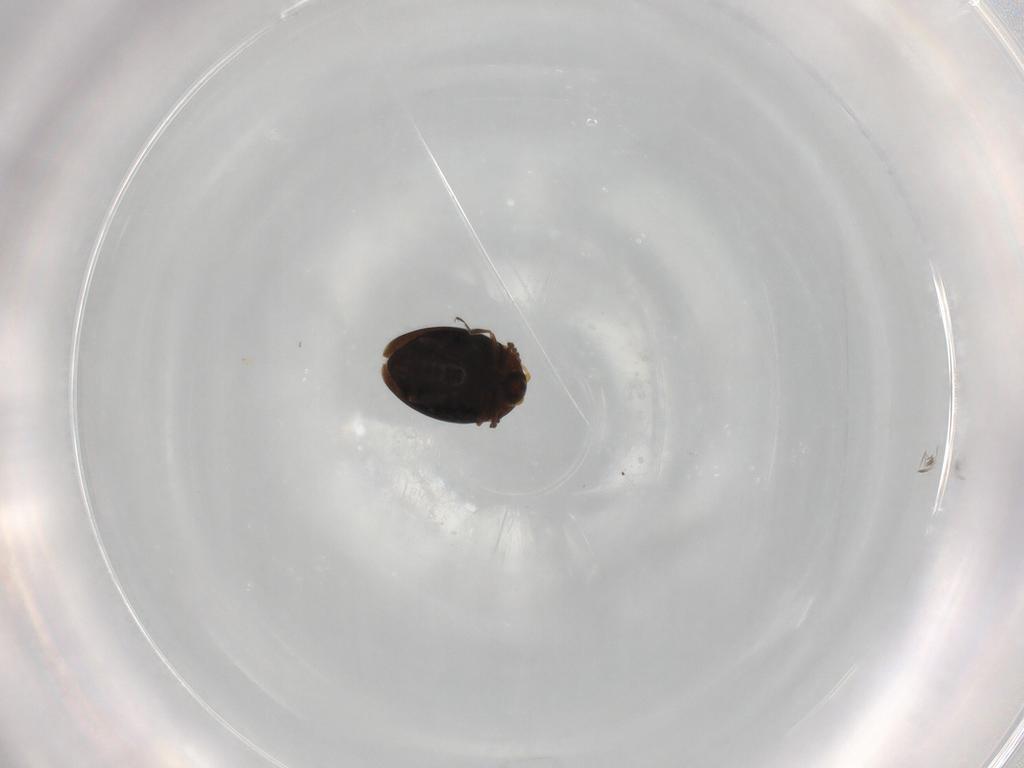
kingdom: Animalia
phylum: Arthropoda
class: Insecta
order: Coleoptera
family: Corylophidae
